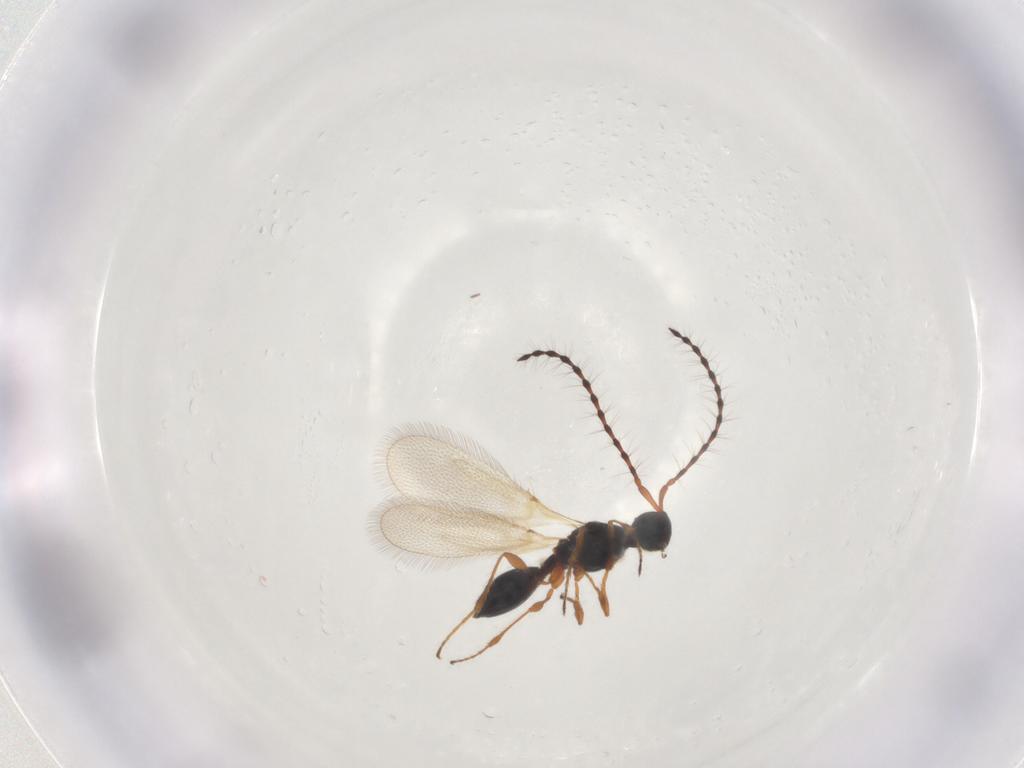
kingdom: Animalia
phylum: Arthropoda
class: Insecta
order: Hymenoptera
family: Diapriidae
